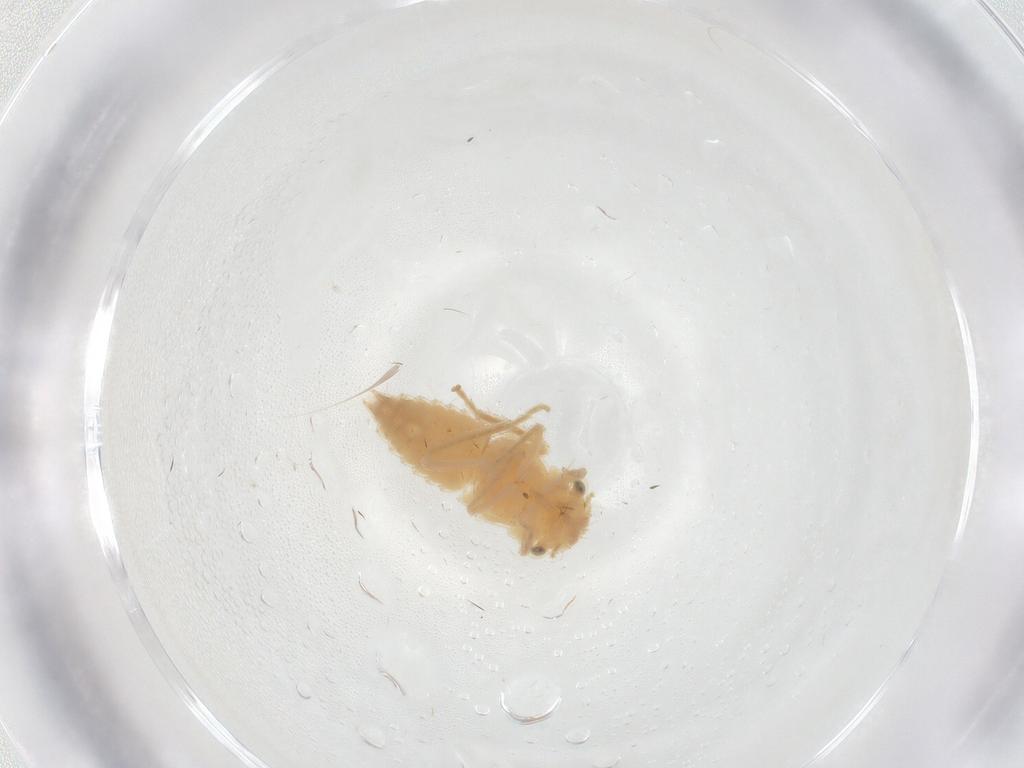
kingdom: Animalia
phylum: Arthropoda
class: Insecta
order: Hemiptera
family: Cicadellidae
